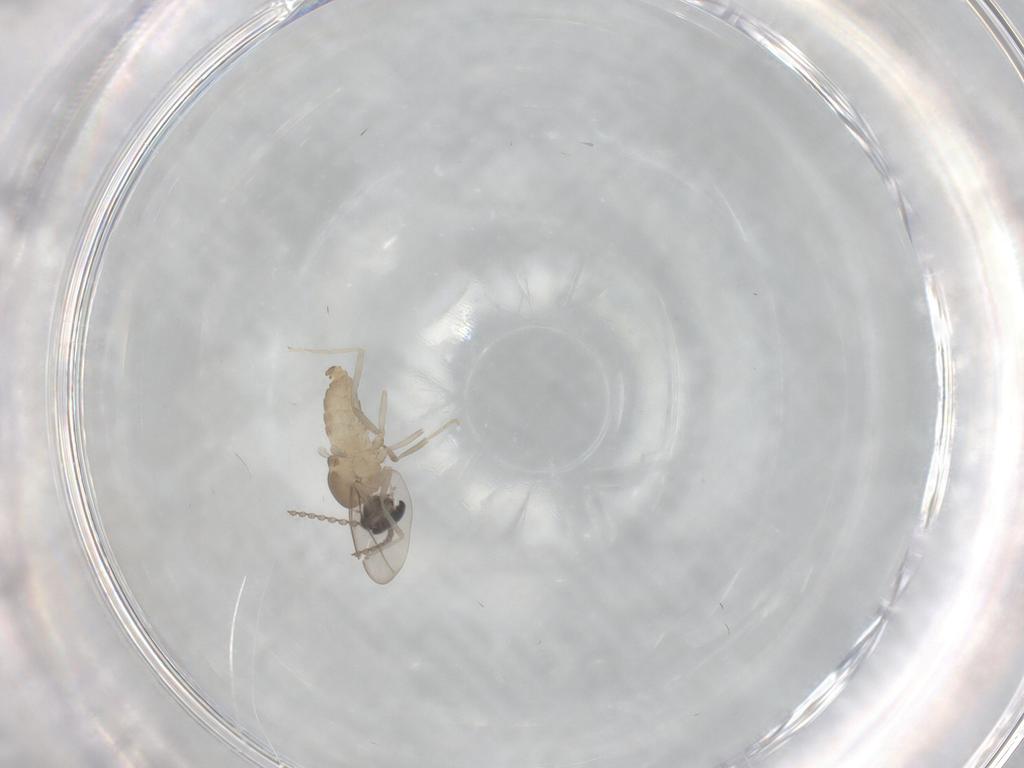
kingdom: Animalia
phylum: Arthropoda
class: Insecta
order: Diptera
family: Cecidomyiidae
